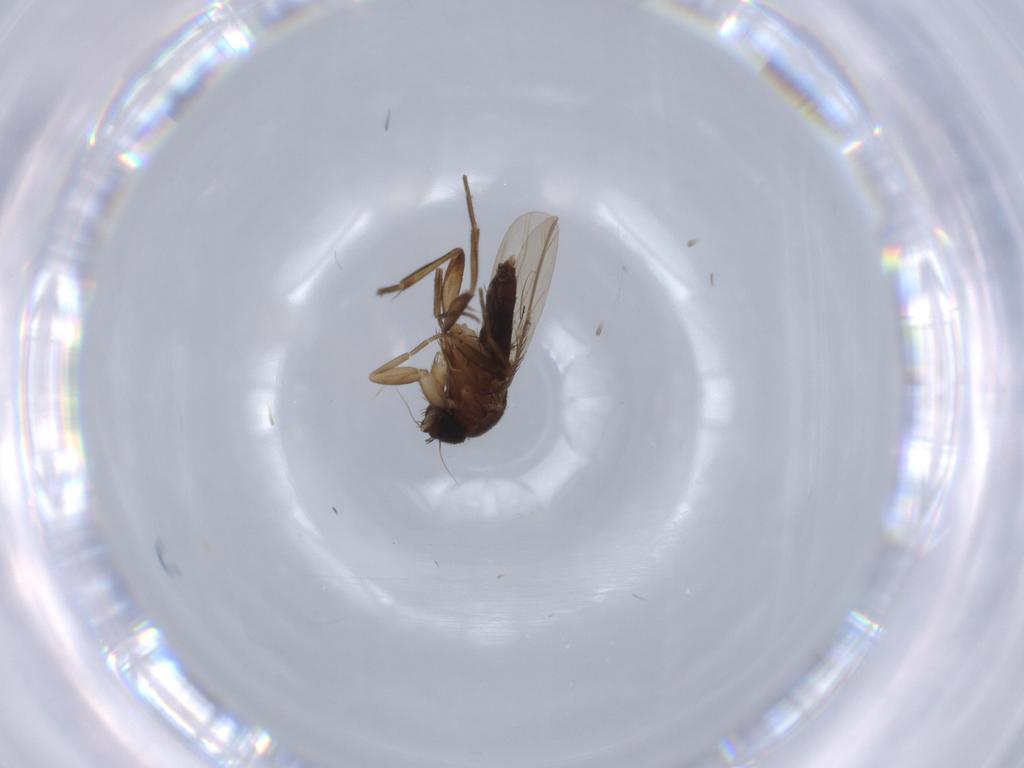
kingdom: Animalia
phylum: Arthropoda
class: Insecta
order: Diptera
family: Phoridae
